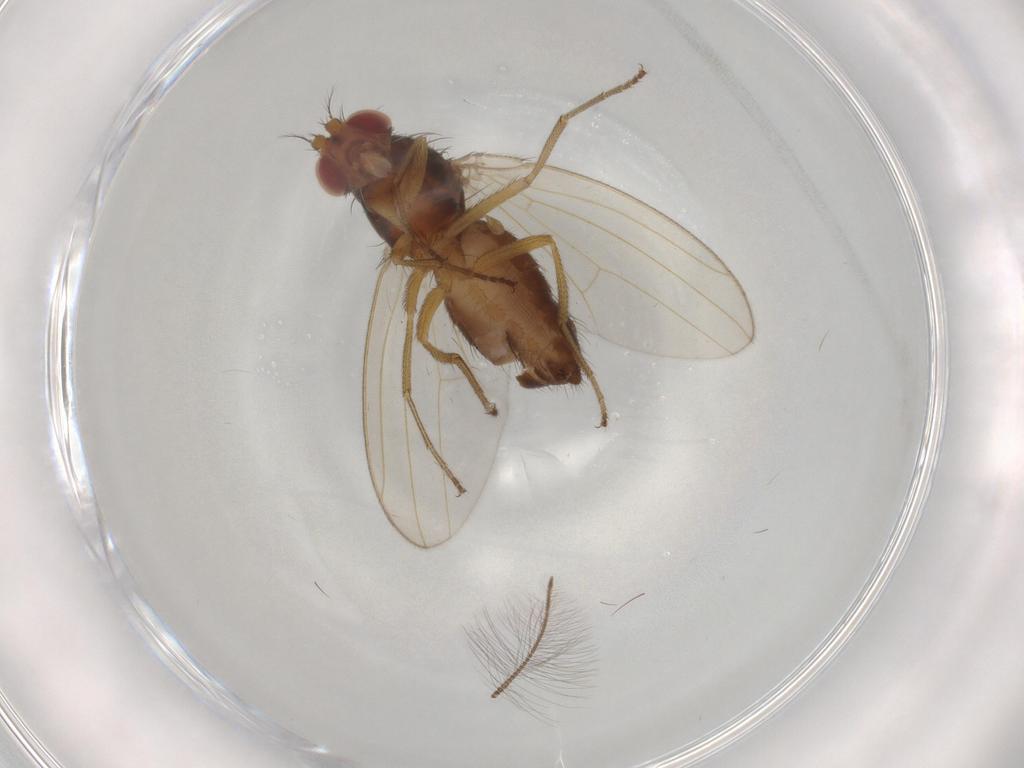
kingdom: Animalia
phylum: Arthropoda
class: Insecta
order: Diptera
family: Drosophilidae
